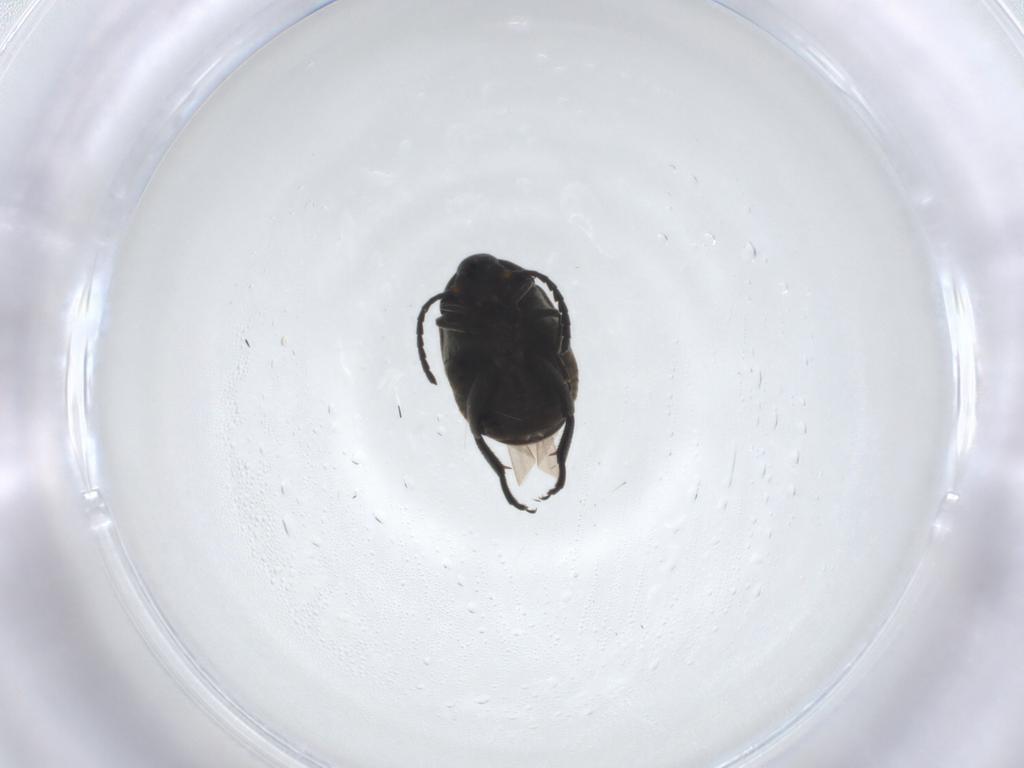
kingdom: Animalia
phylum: Arthropoda
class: Insecta
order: Coleoptera
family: Chrysomelidae
